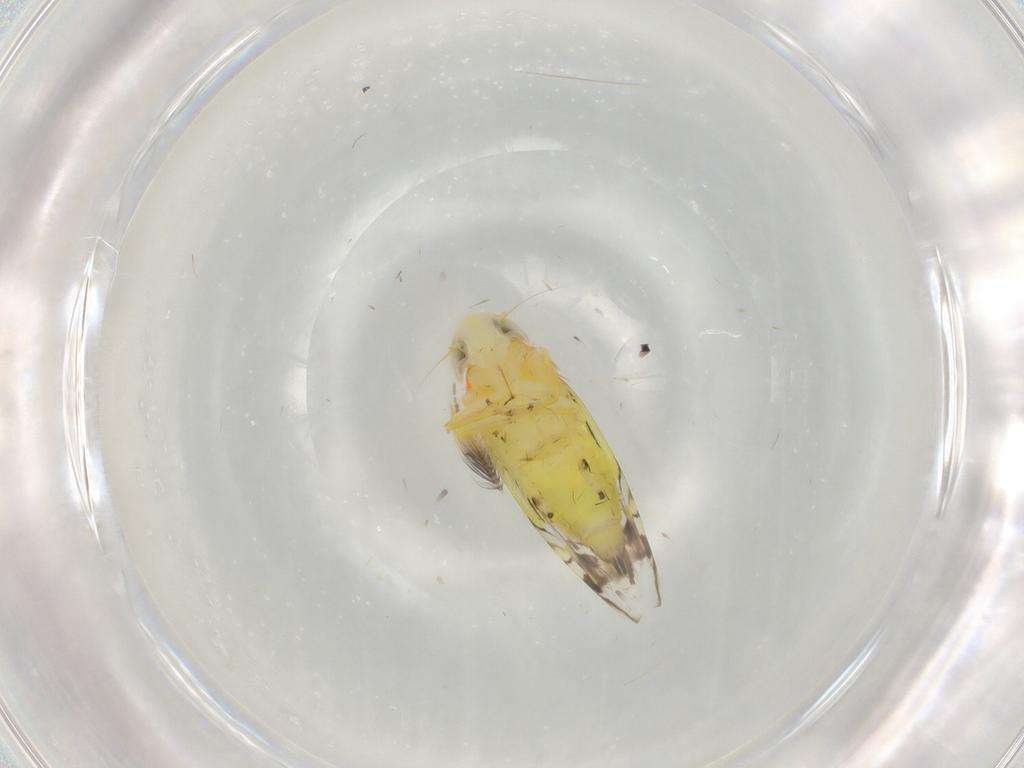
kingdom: Animalia
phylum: Arthropoda
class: Insecta
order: Hemiptera
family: Cicadellidae
